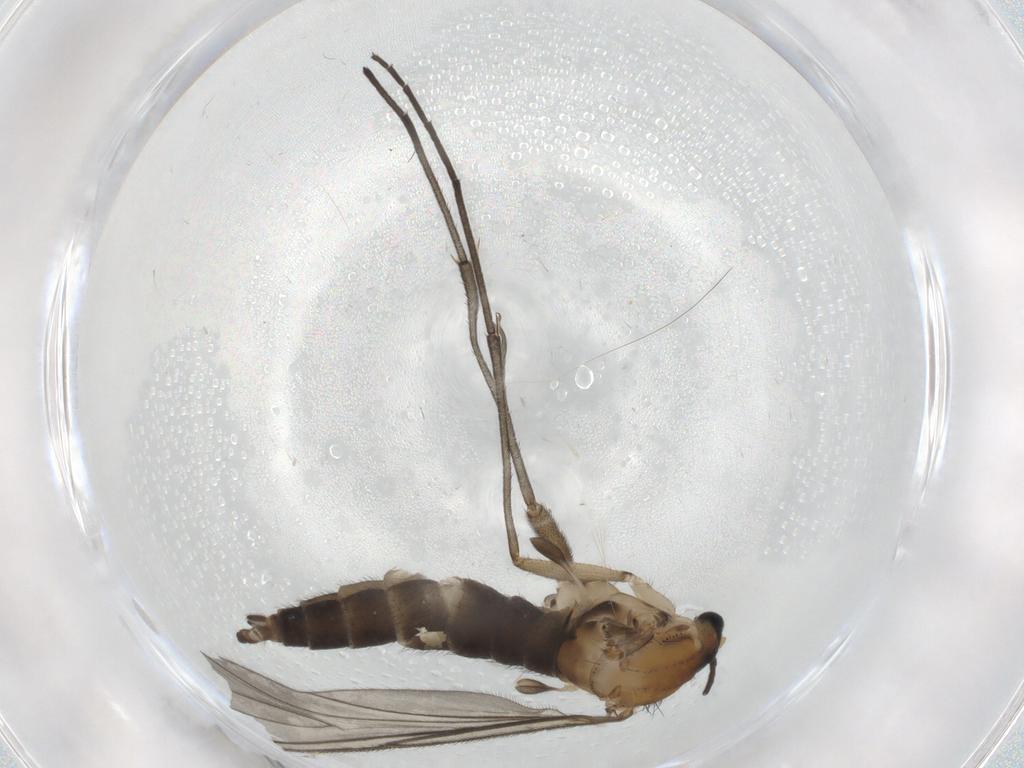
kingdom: Animalia
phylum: Arthropoda
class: Insecta
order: Diptera
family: Sciaridae
